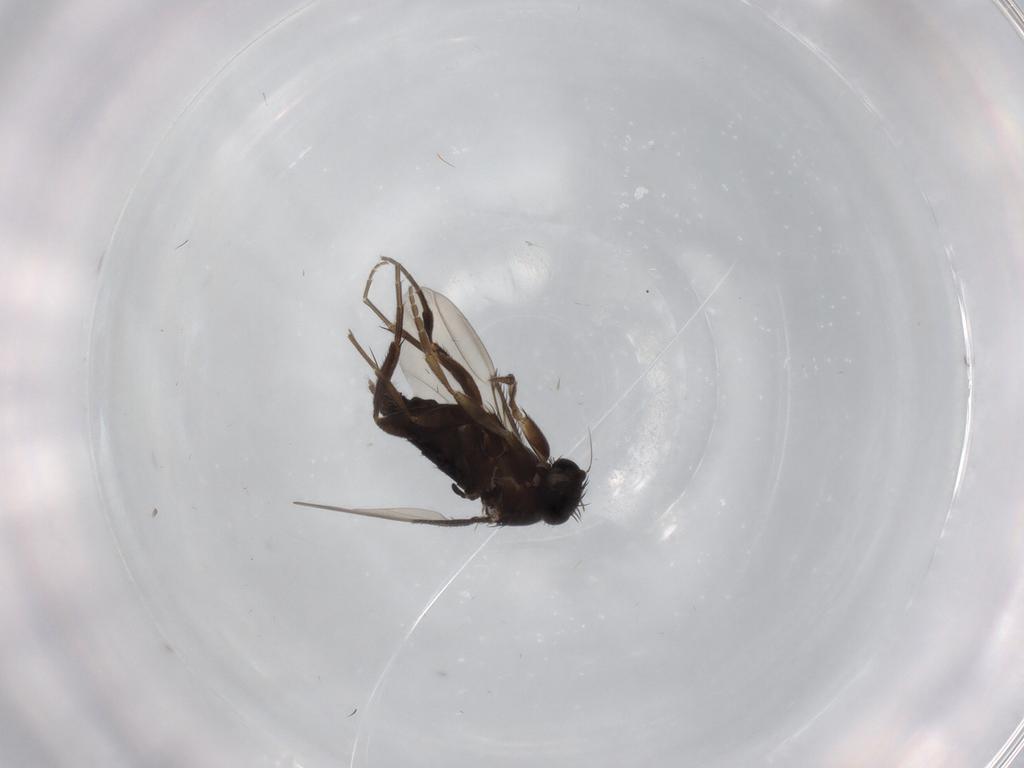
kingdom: Animalia
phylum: Arthropoda
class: Insecta
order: Diptera
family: Phoridae
